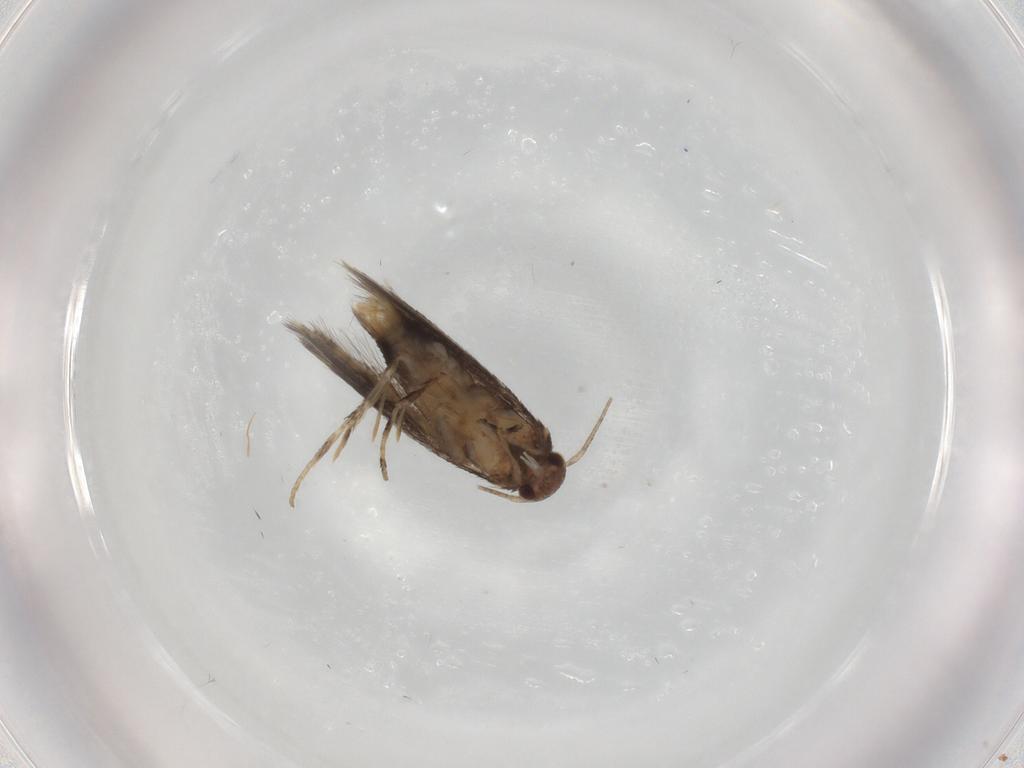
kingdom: Animalia
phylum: Arthropoda
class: Insecta
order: Lepidoptera
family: Elachistidae
